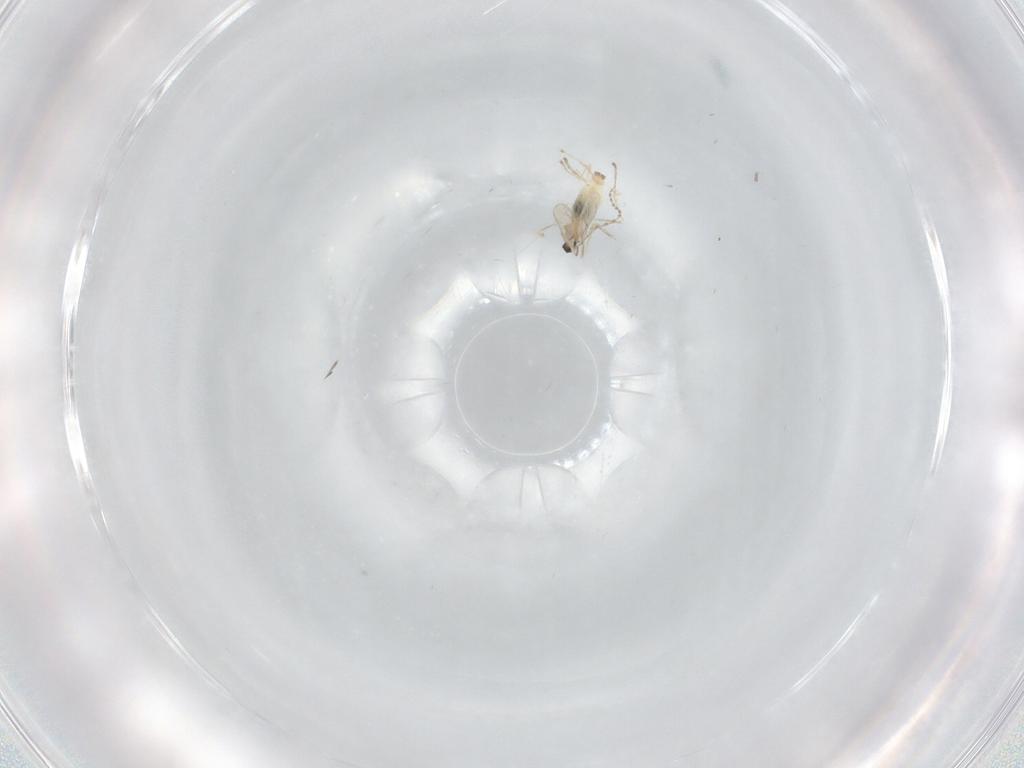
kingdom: Animalia
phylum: Arthropoda
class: Insecta
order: Diptera
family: Cecidomyiidae
